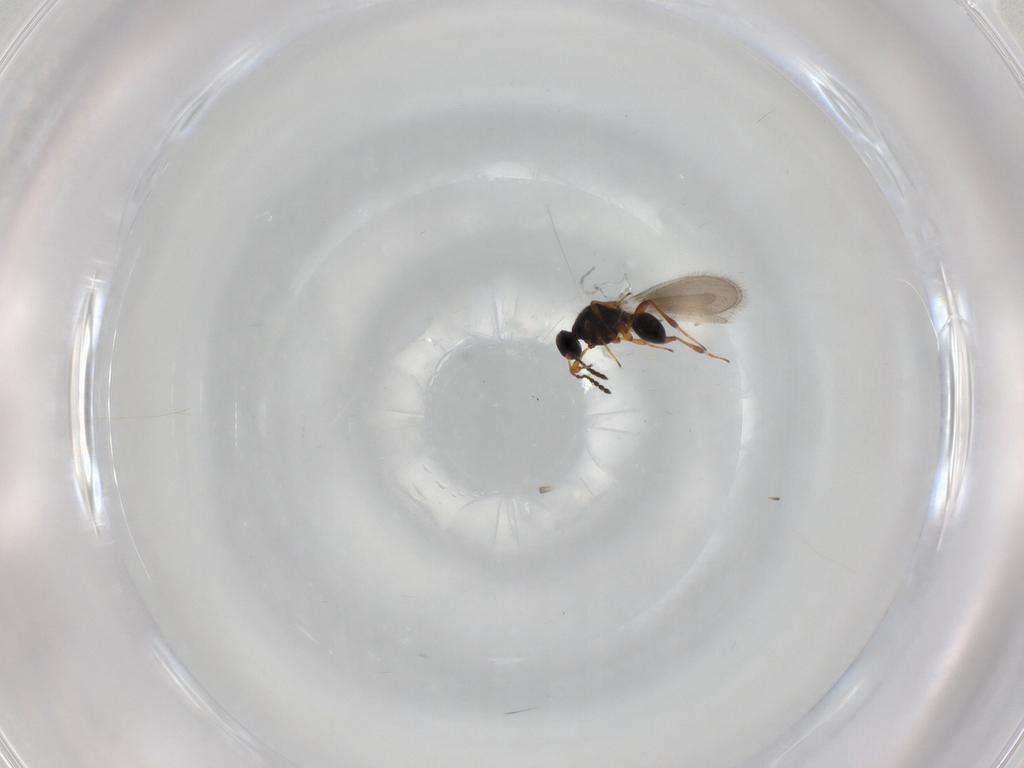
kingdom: Animalia
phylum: Arthropoda
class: Insecta
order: Hymenoptera
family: Platygastridae
